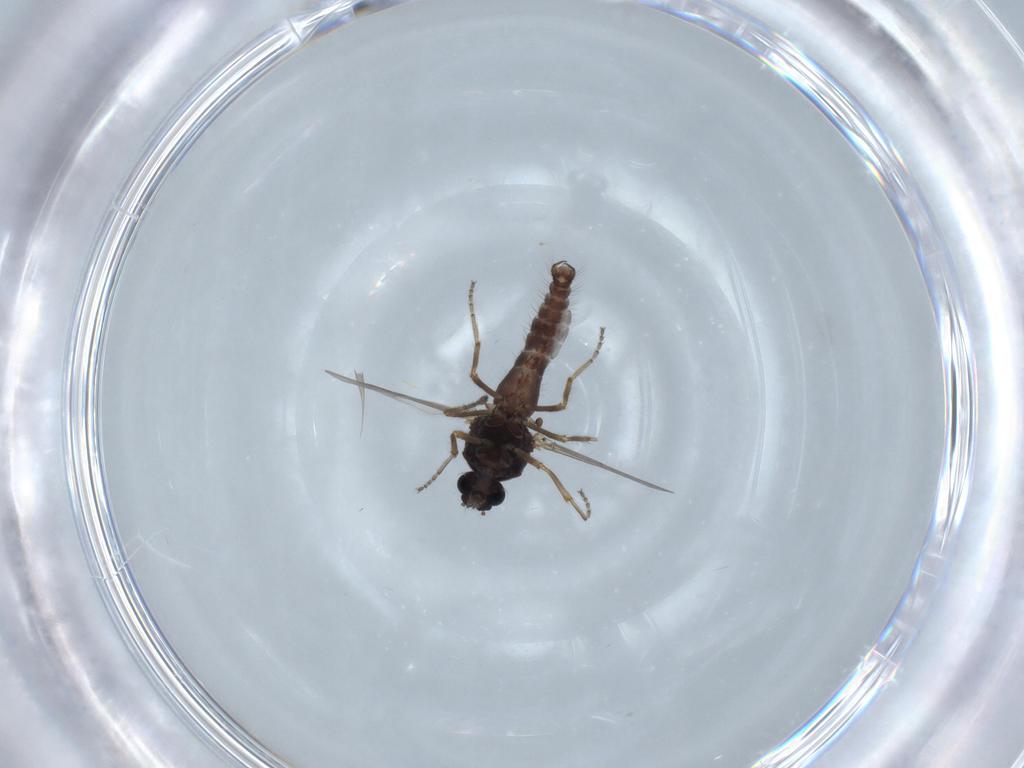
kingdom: Animalia
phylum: Arthropoda
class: Insecta
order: Diptera
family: Ceratopogonidae
